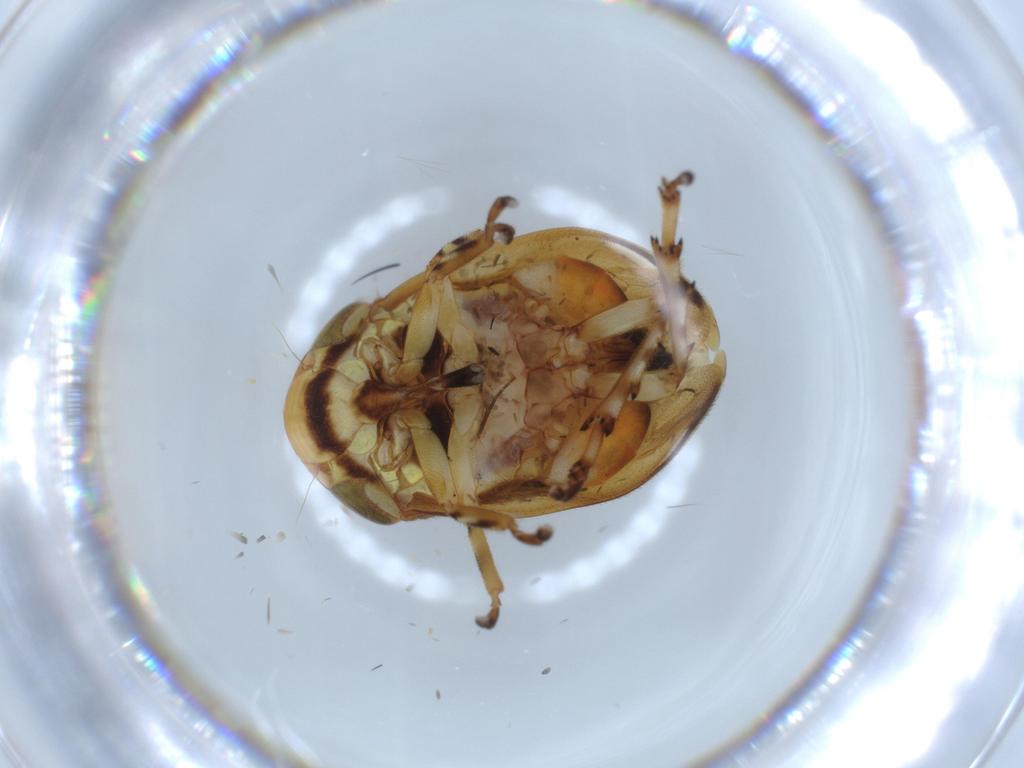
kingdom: Animalia
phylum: Arthropoda
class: Insecta
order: Hemiptera
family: Clastopteridae
